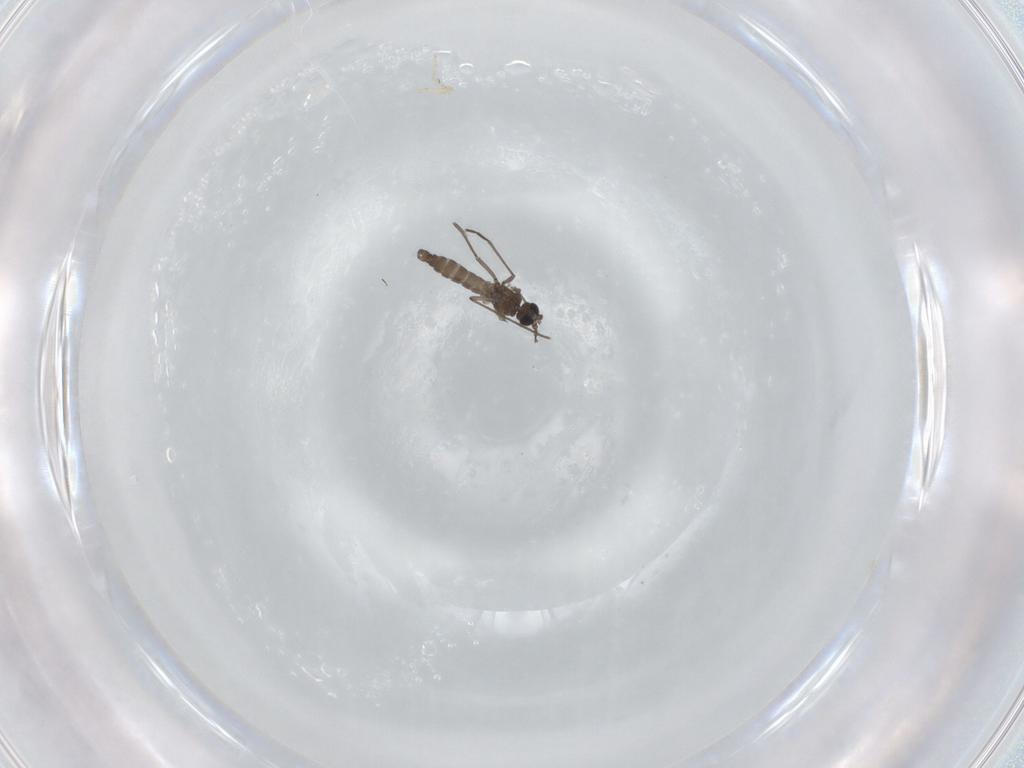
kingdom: Animalia
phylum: Arthropoda
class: Insecta
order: Diptera
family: Sciaridae
